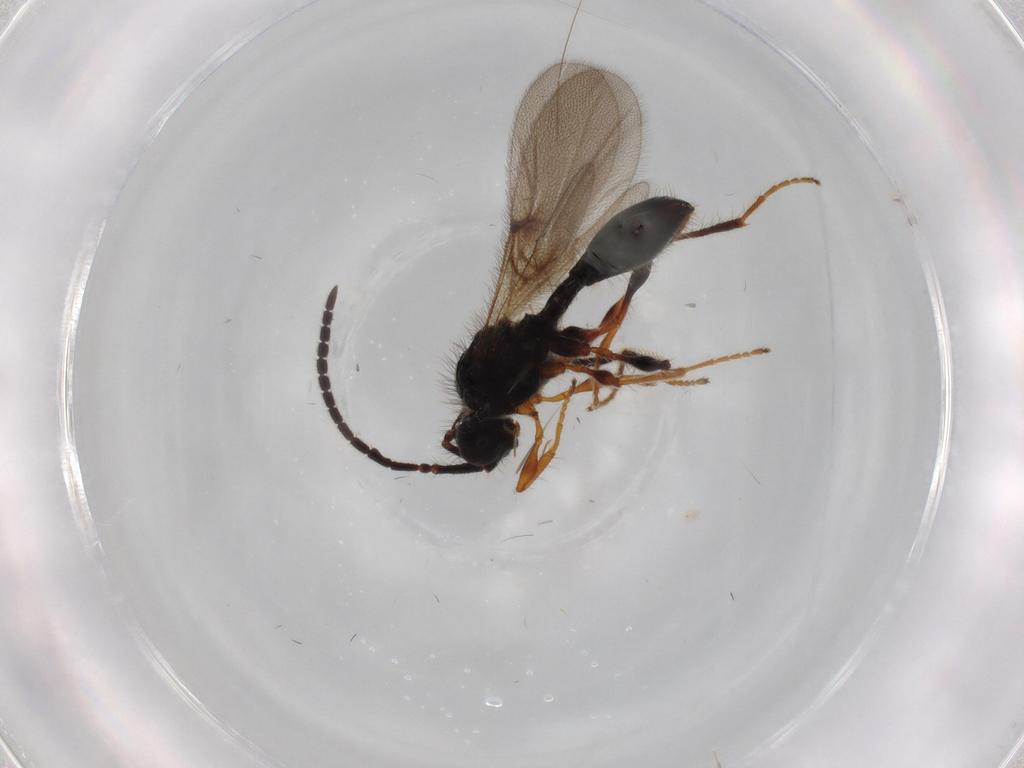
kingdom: Animalia
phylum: Arthropoda
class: Insecta
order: Hymenoptera
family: Diapriidae
